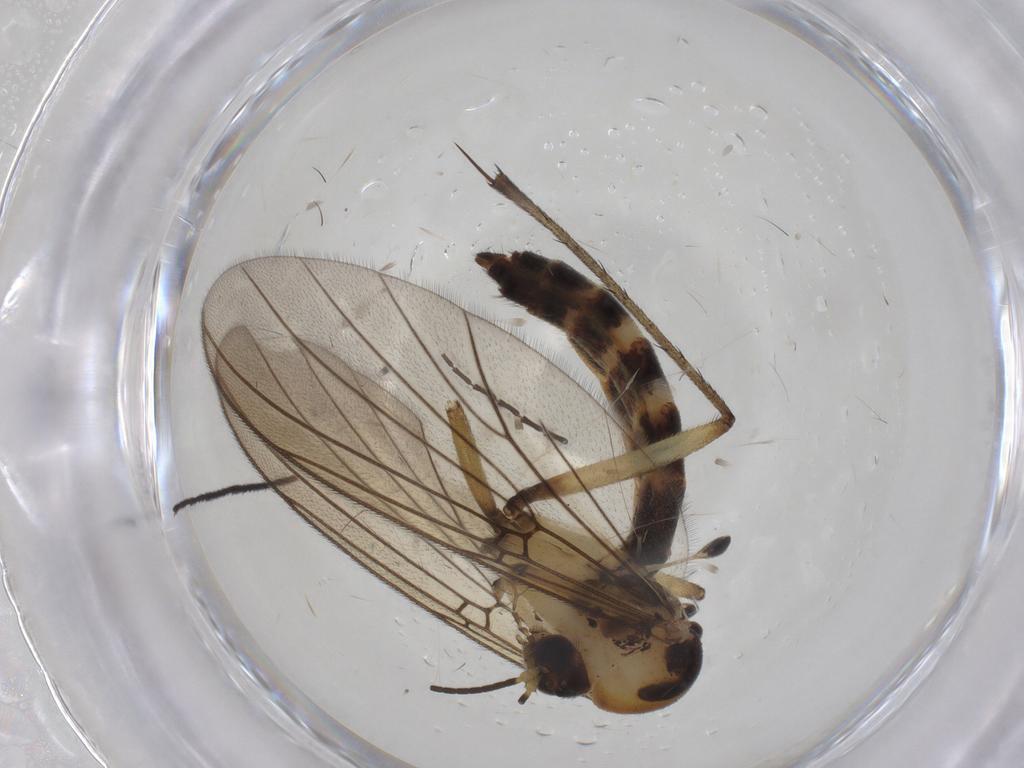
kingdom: Animalia
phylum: Arthropoda
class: Insecta
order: Diptera
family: Mycetophilidae
